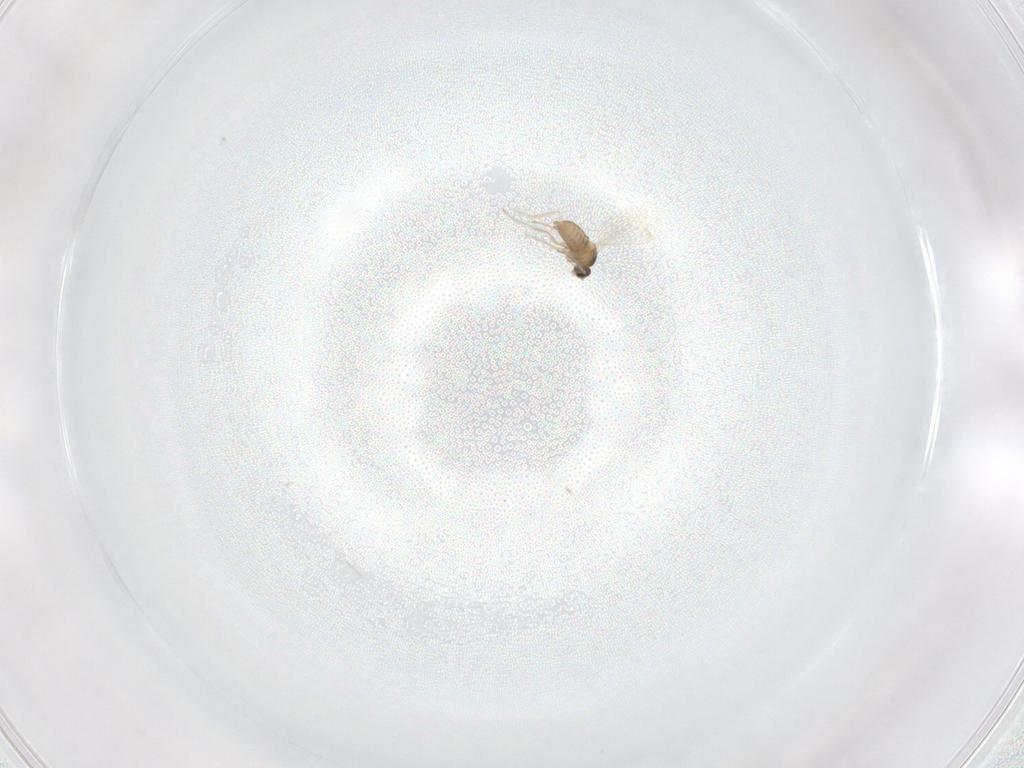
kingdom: Animalia
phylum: Arthropoda
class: Insecta
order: Diptera
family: Cecidomyiidae
